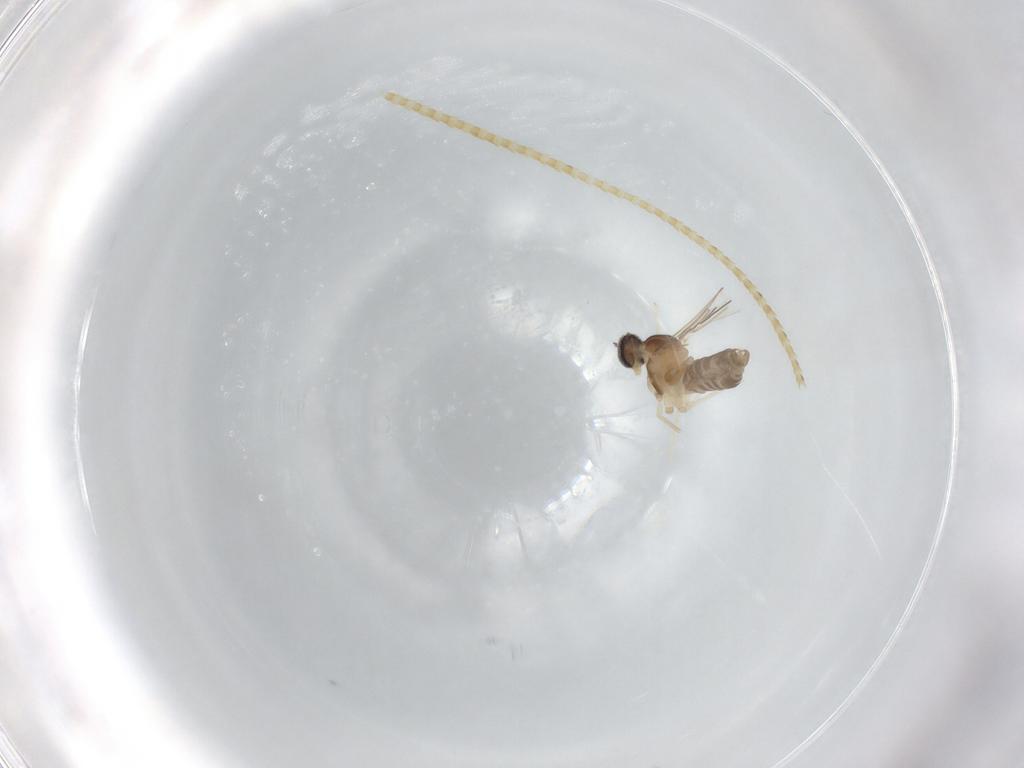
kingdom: Animalia
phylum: Arthropoda
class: Insecta
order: Diptera
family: Cecidomyiidae
